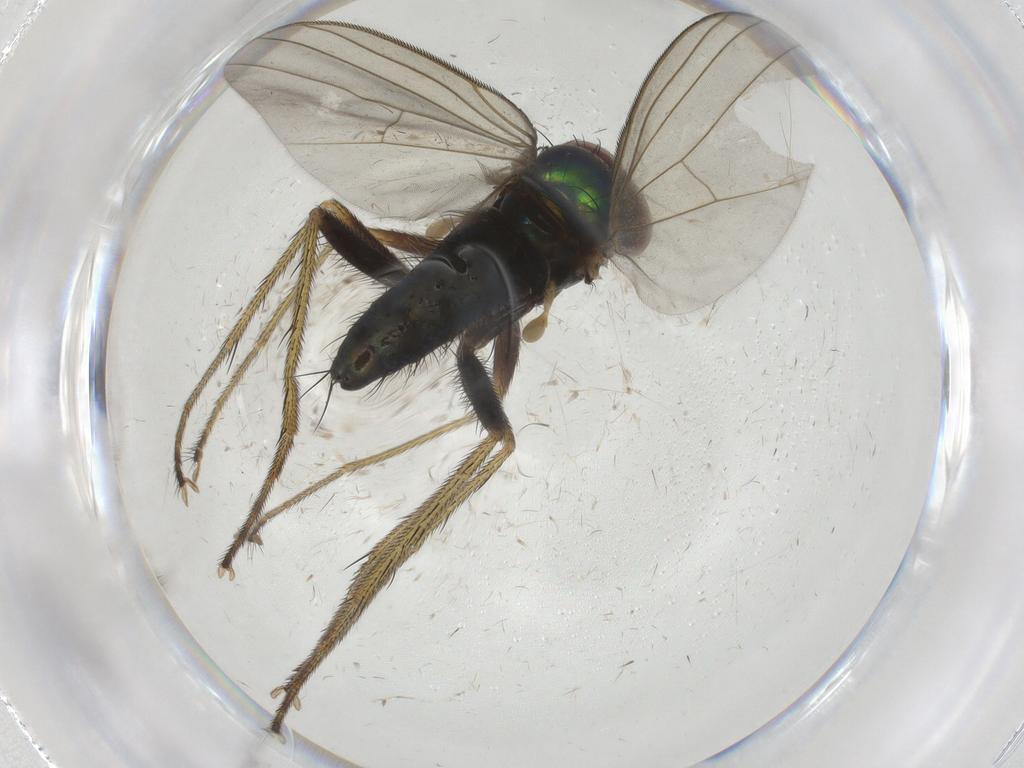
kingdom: Animalia
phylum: Arthropoda
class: Insecta
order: Diptera
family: Dolichopodidae
